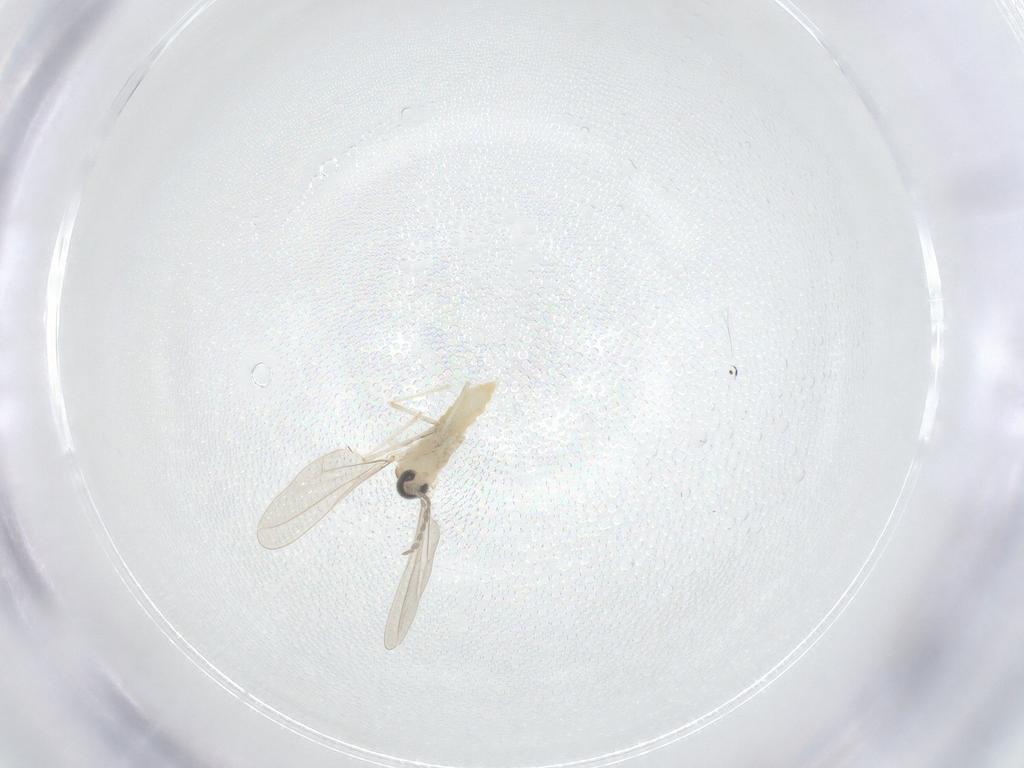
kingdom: Animalia
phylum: Arthropoda
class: Insecta
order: Diptera
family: Cecidomyiidae
